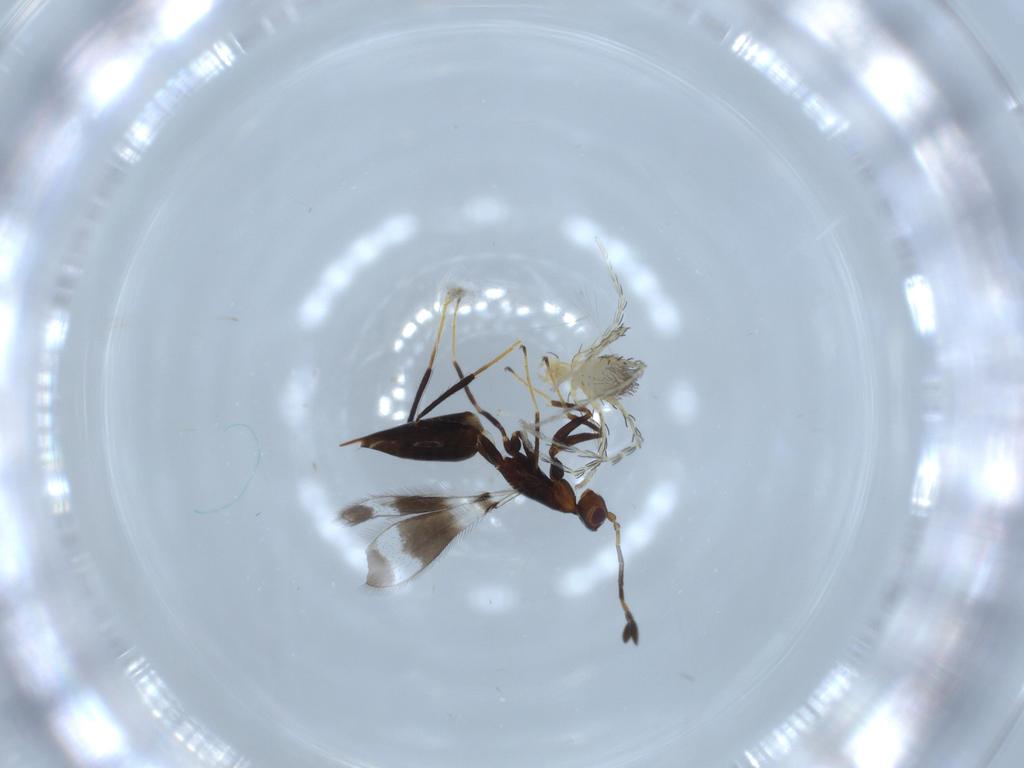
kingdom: Animalia
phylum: Arthropoda
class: Arachnida
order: Trombidiformes
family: Erythraeidae
